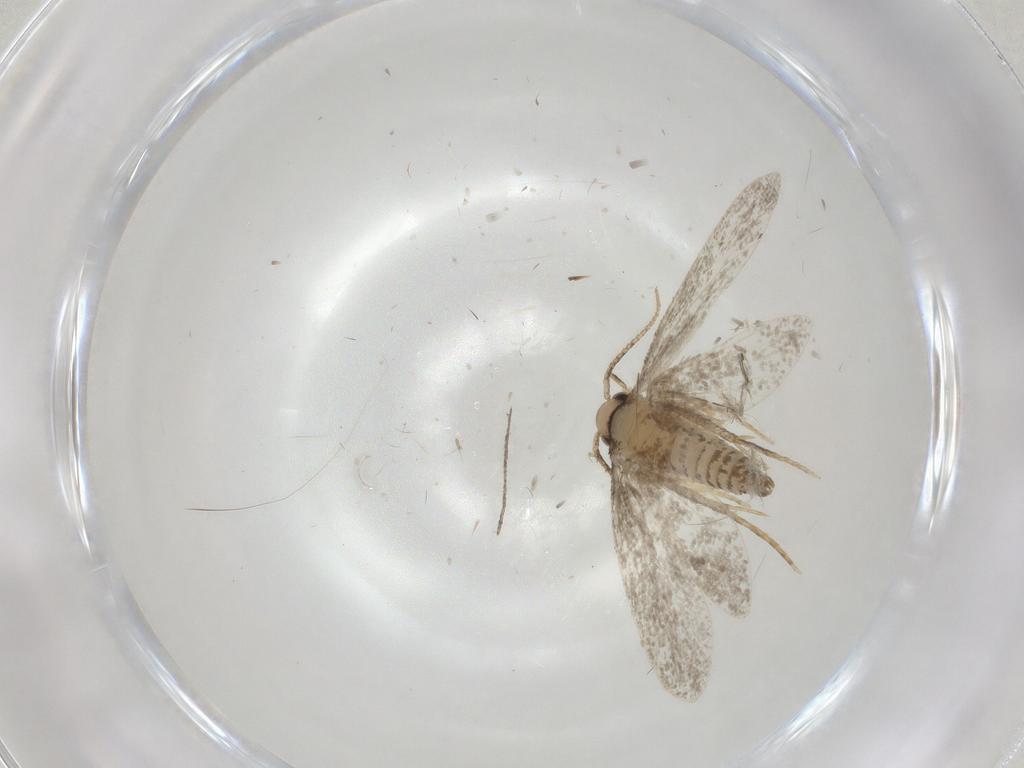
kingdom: Animalia
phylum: Arthropoda
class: Insecta
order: Lepidoptera
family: Psychidae
